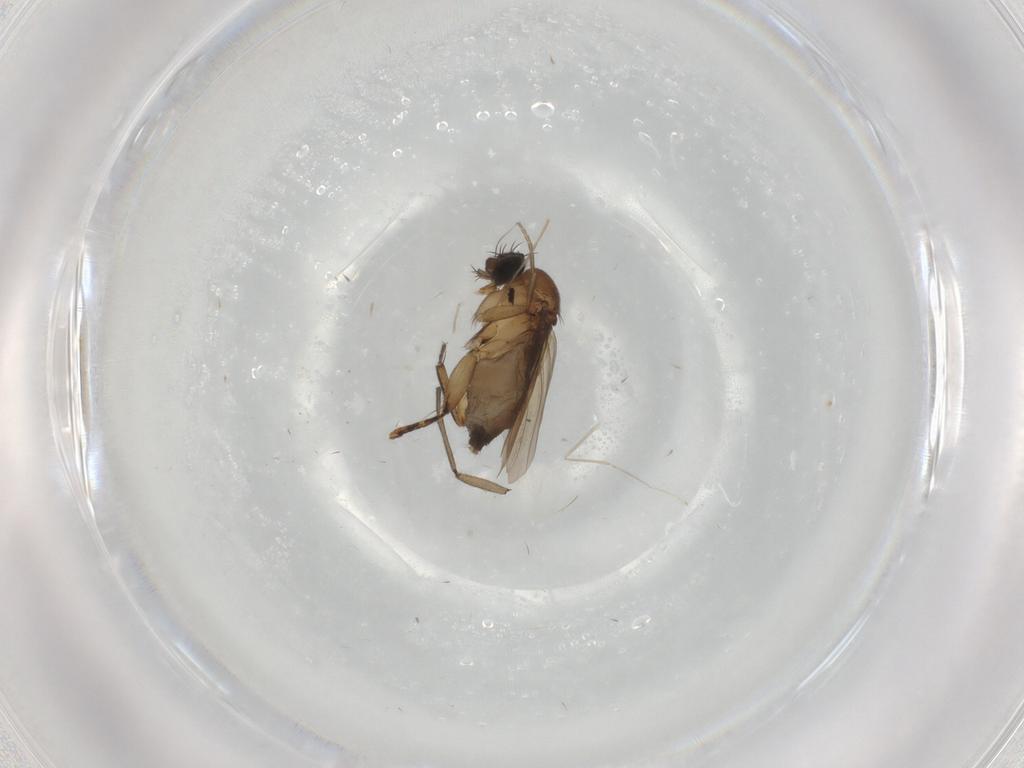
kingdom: Animalia
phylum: Arthropoda
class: Insecta
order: Diptera
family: Phoridae
